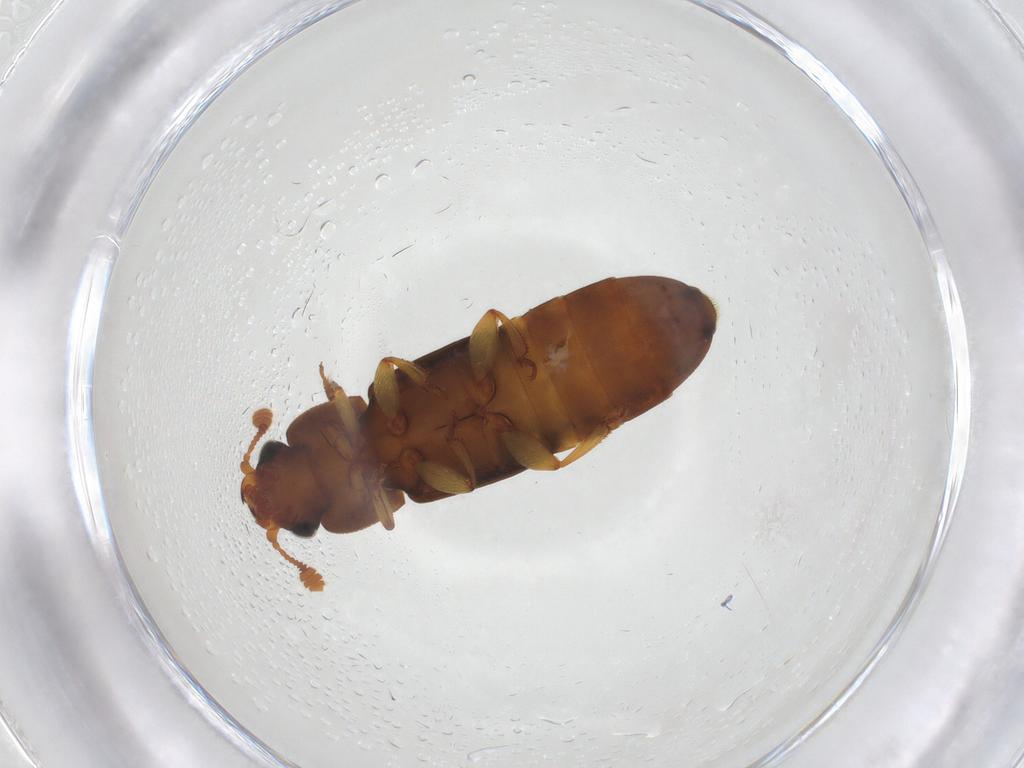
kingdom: Animalia
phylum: Arthropoda
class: Insecta
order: Coleoptera
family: Nitidulidae
